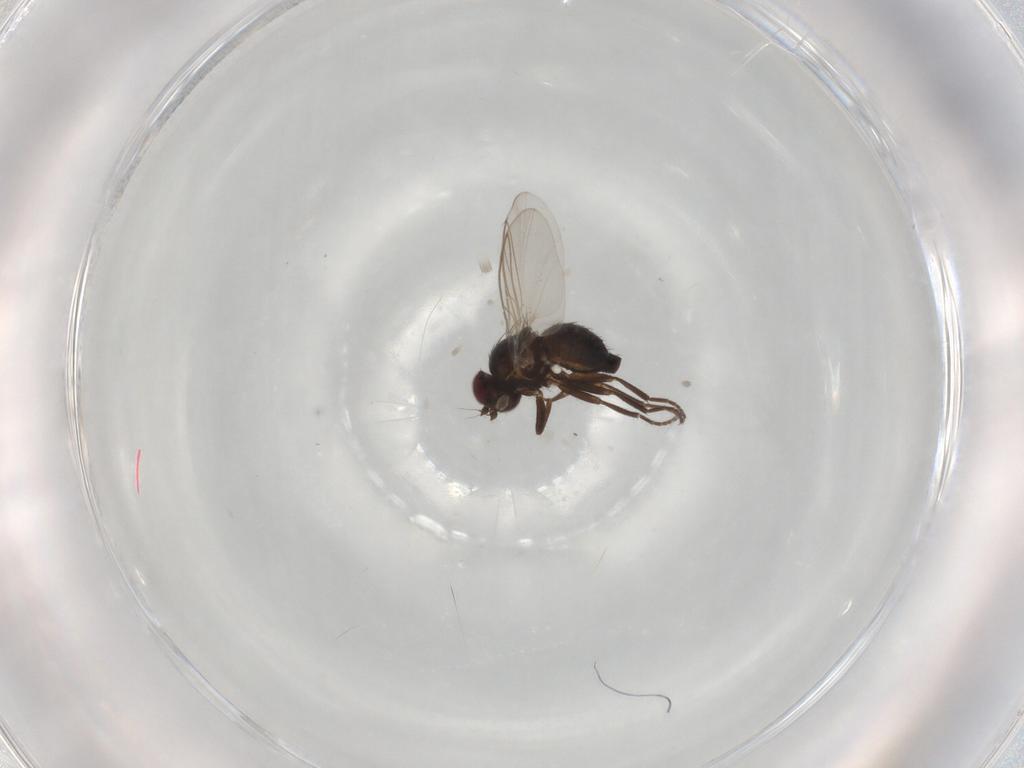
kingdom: Animalia
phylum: Arthropoda
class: Insecta
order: Diptera
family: Agromyzidae
